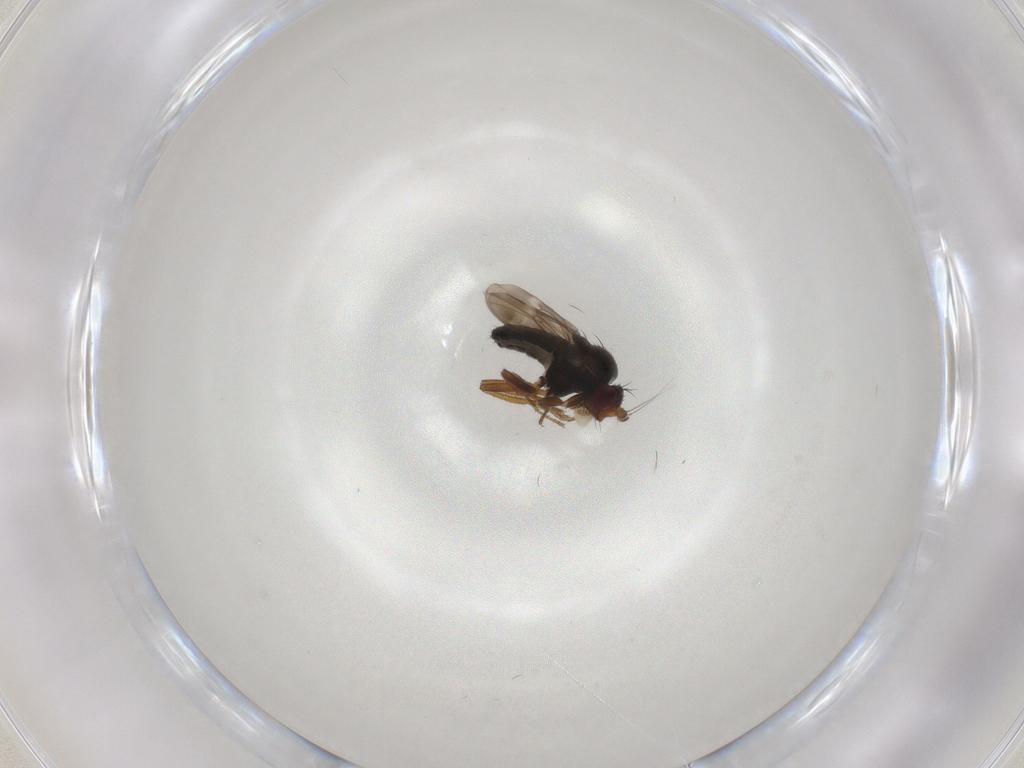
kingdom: Animalia
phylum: Arthropoda
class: Insecta
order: Diptera
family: Sphaeroceridae
